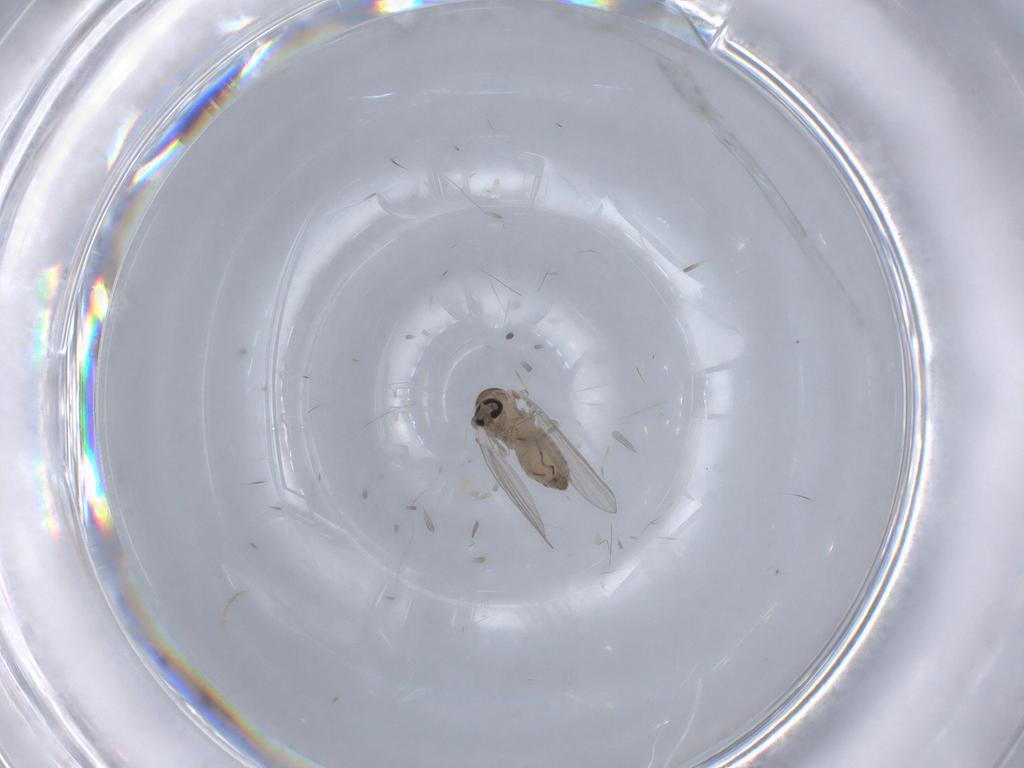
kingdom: Animalia
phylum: Arthropoda
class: Insecta
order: Diptera
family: Psychodidae
